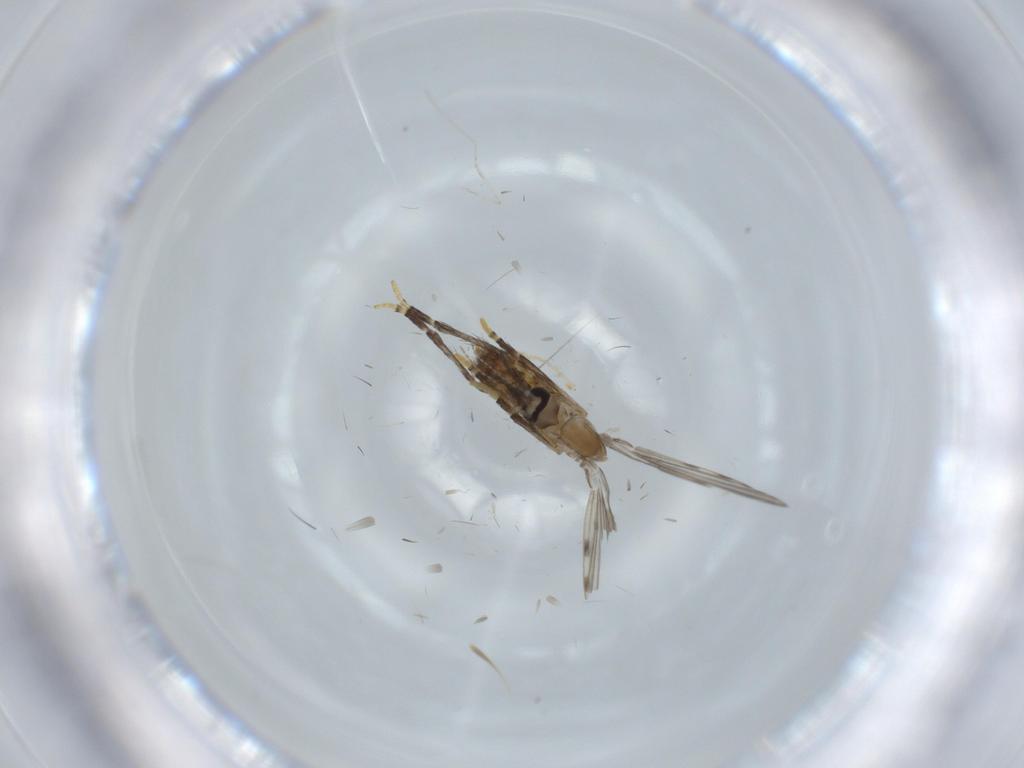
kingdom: Animalia
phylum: Arthropoda
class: Insecta
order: Diptera
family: Psychodidae
